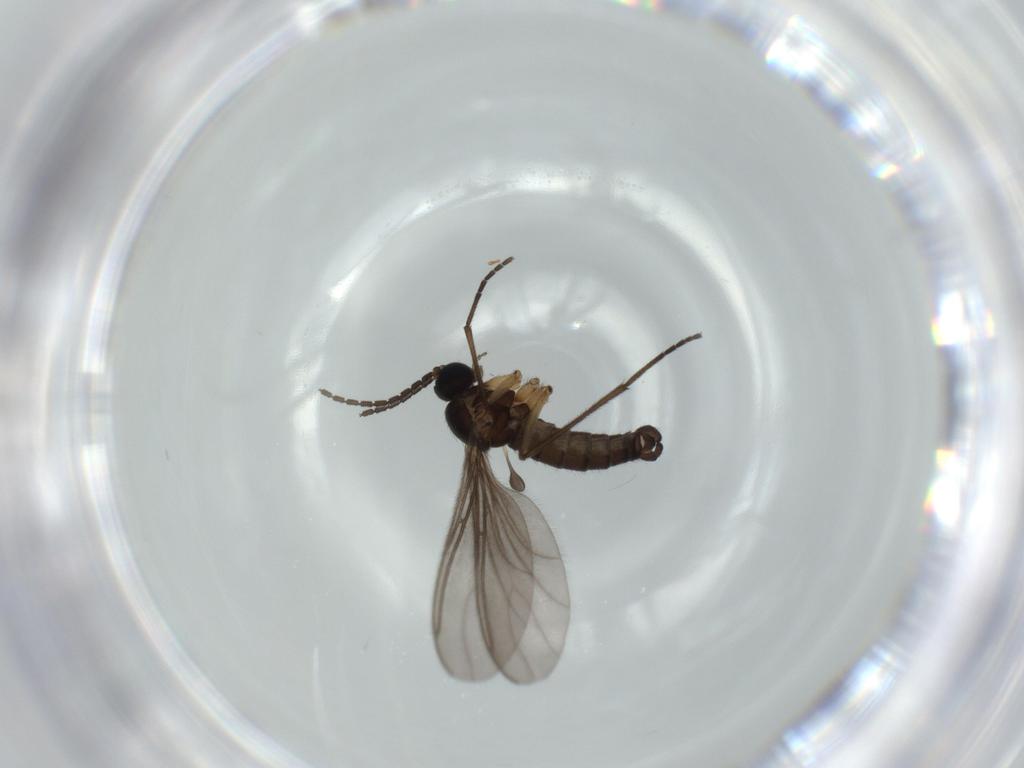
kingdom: Animalia
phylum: Arthropoda
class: Insecta
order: Diptera
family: Sciaridae
